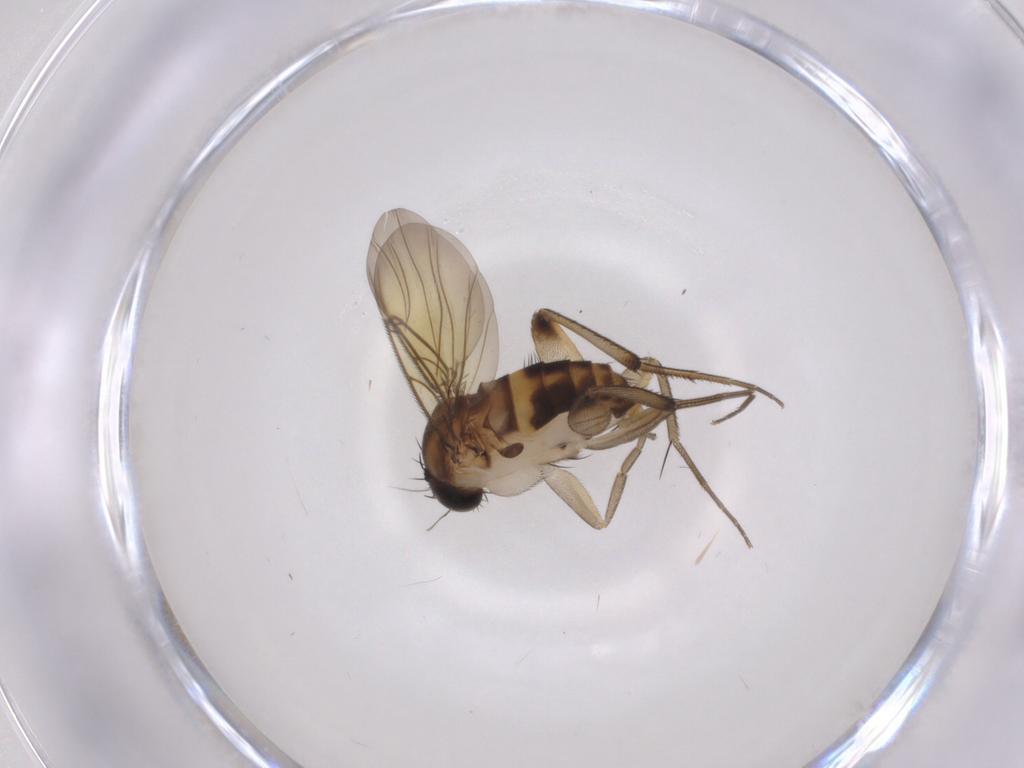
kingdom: Animalia
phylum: Arthropoda
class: Insecta
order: Diptera
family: Phoridae
